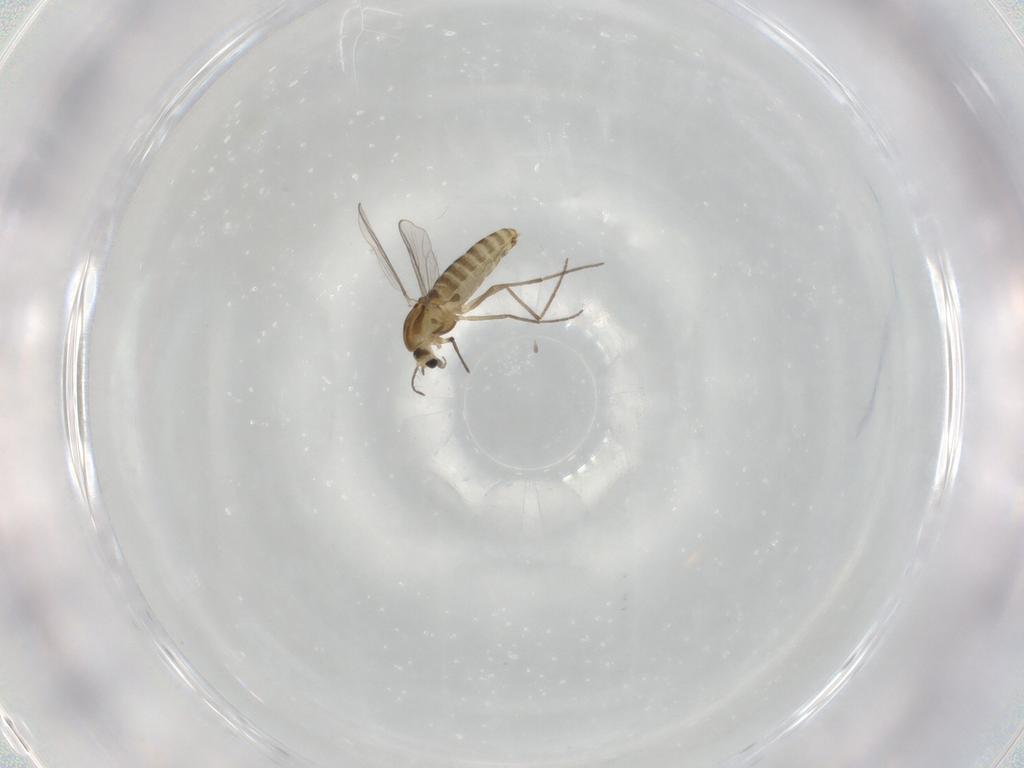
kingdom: Animalia
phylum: Arthropoda
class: Insecta
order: Diptera
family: Chironomidae
